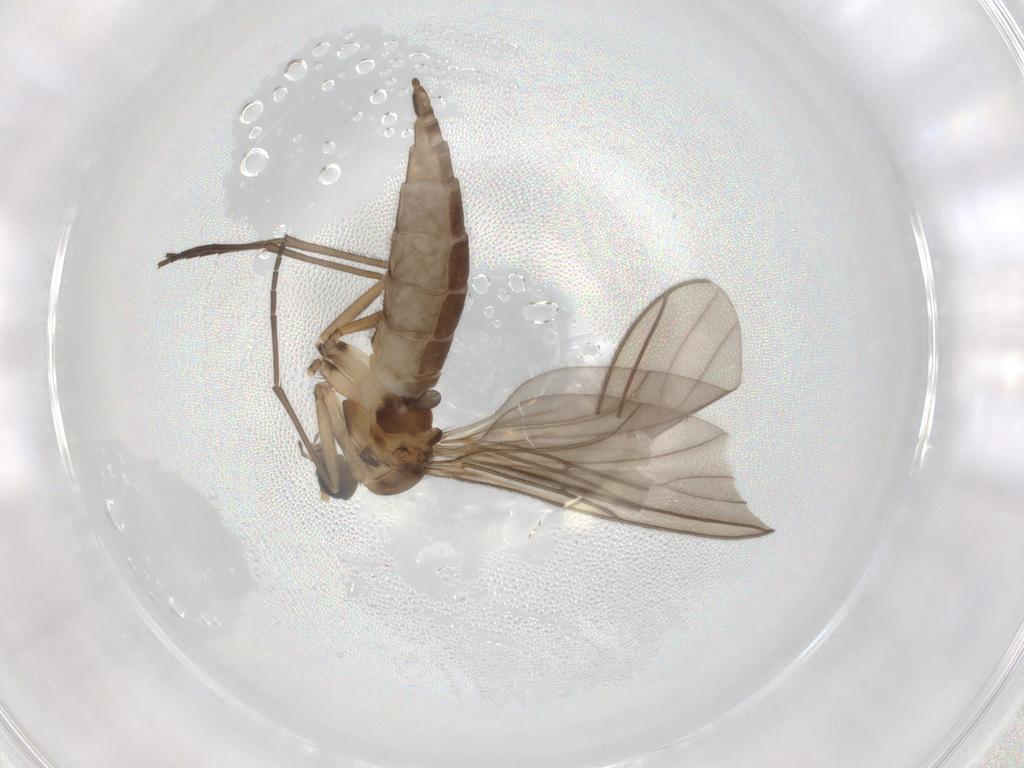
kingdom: Animalia
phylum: Arthropoda
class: Insecta
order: Diptera
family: Sciaridae
